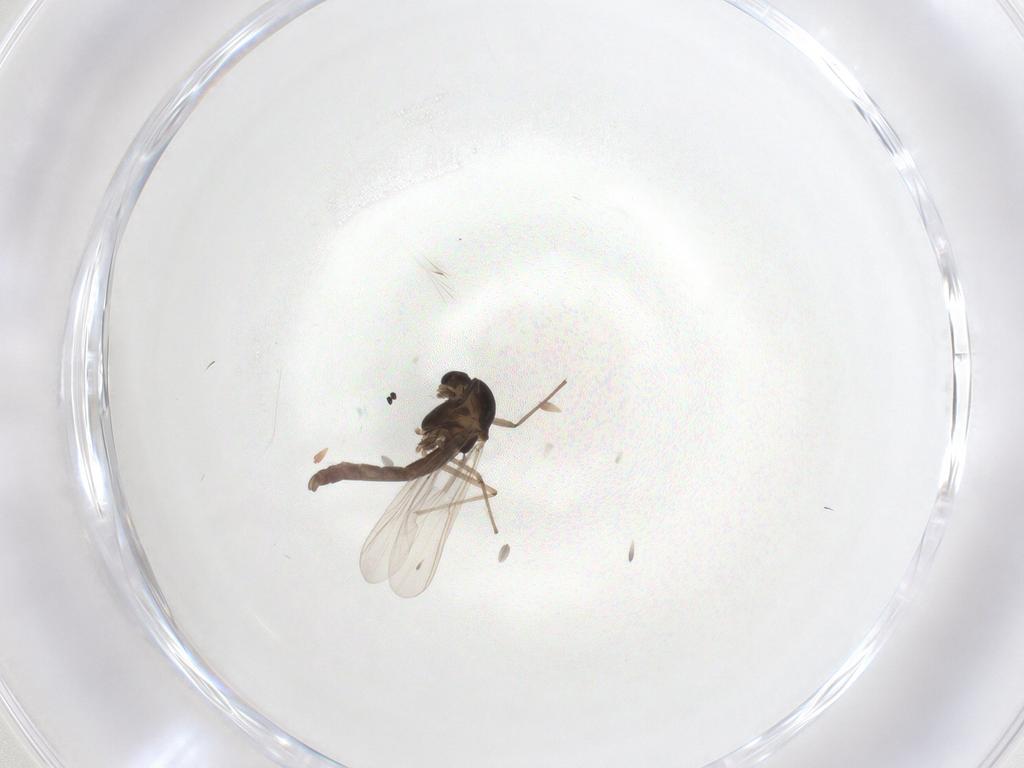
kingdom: Animalia
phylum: Arthropoda
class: Insecta
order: Diptera
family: Chironomidae
